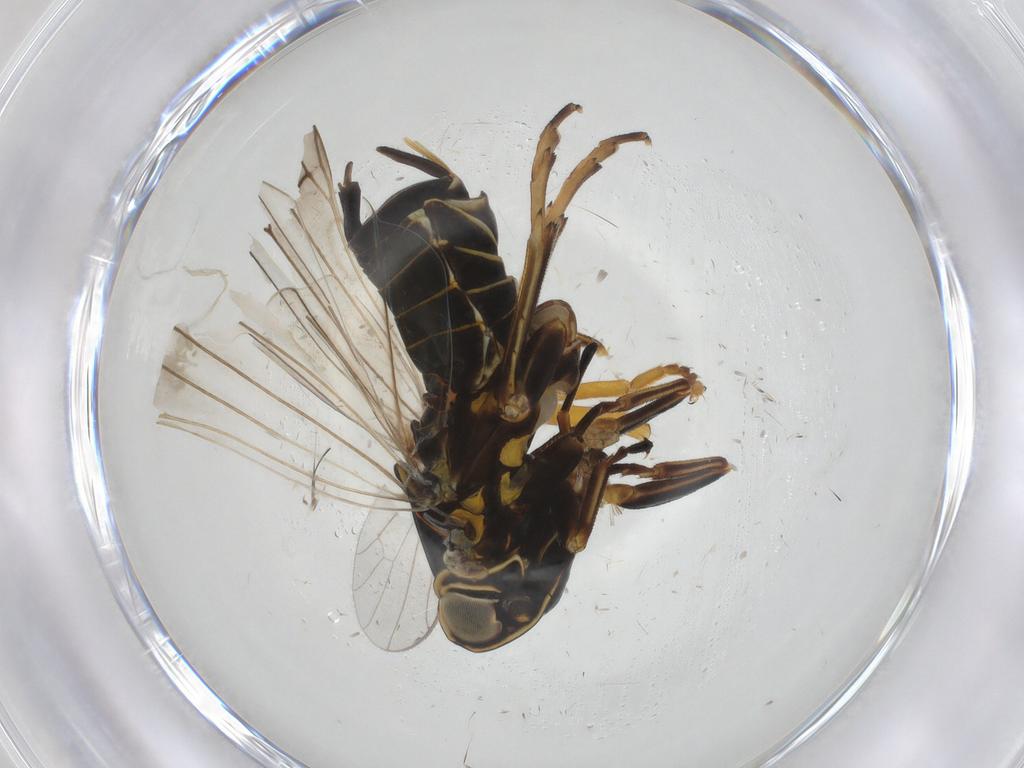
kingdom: Animalia
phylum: Arthropoda
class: Insecta
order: Hemiptera
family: Cixiidae
